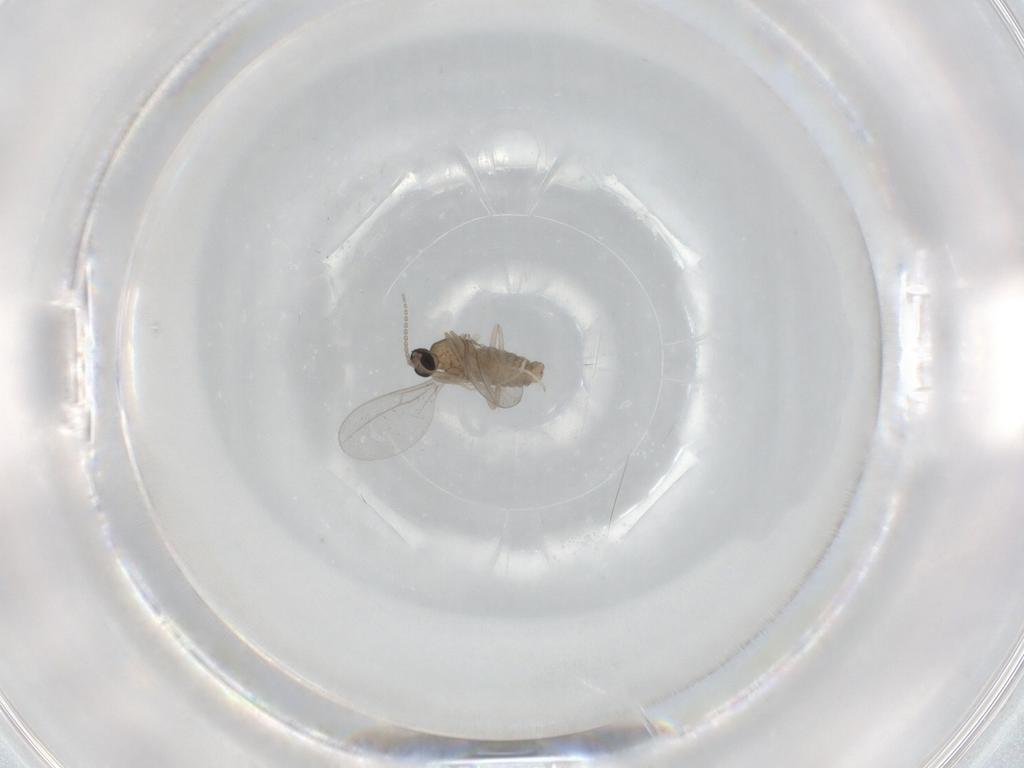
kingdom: Animalia
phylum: Arthropoda
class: Insecta
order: Diptera
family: Cecidomyiidae
